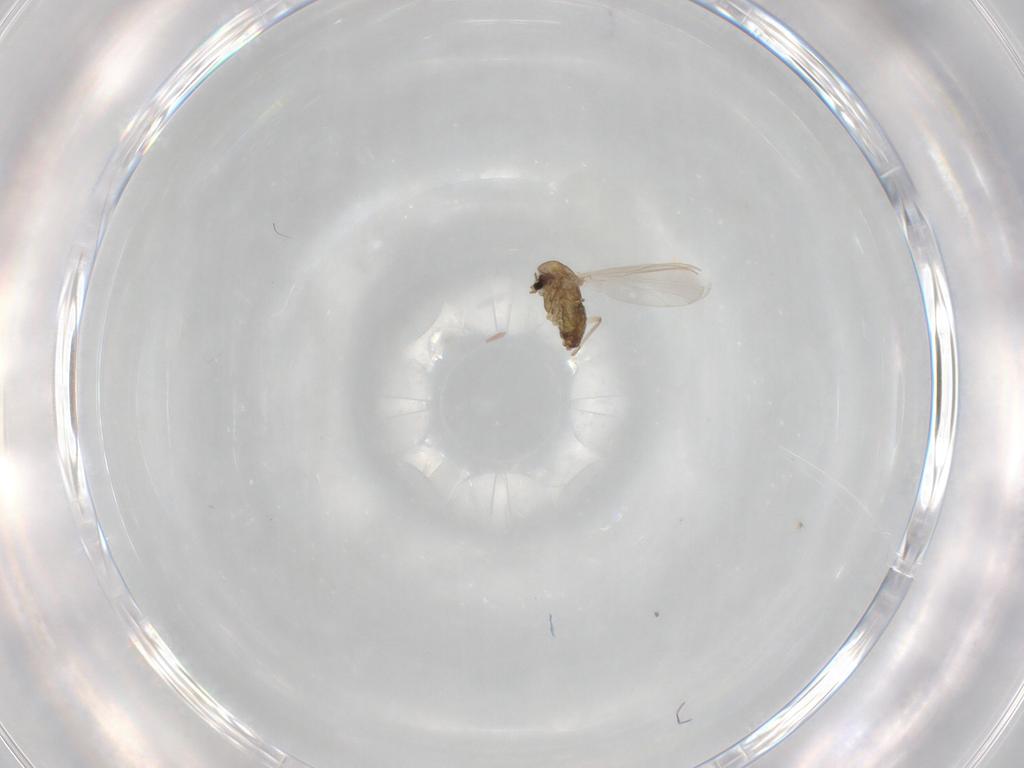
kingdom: Animalia
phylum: Arthropoda
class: Insecta
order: Diptera
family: Chironomidae
